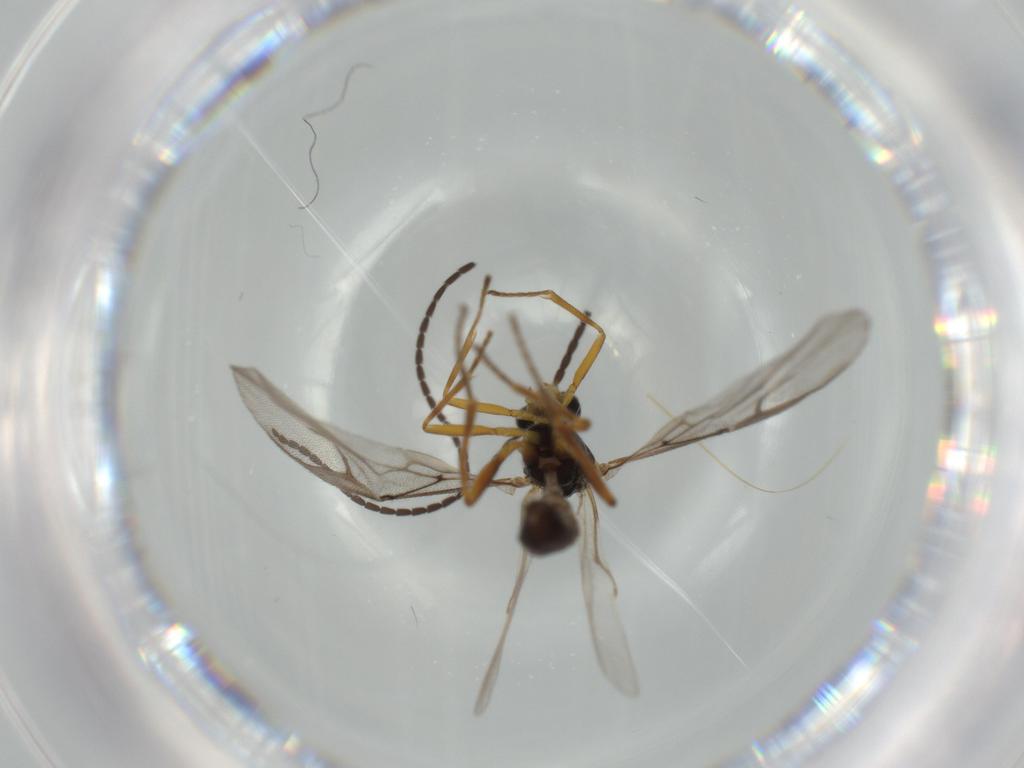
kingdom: Animalia
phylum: Arthropoda
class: Insecta
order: Hymenoptera
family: Braconidae
